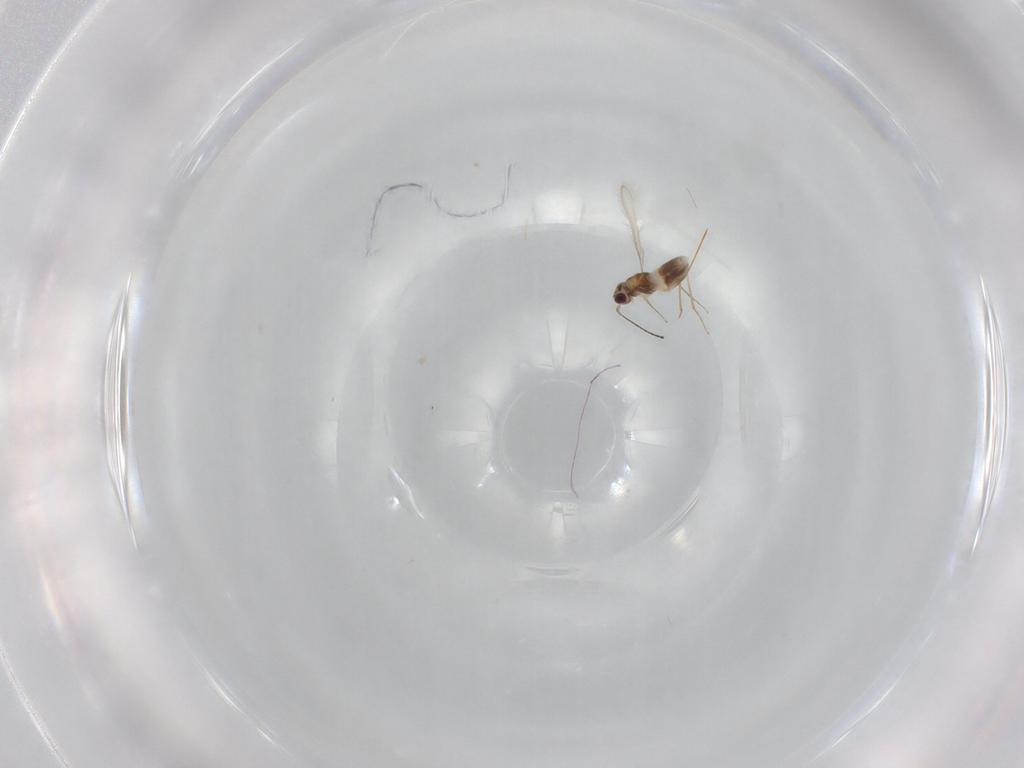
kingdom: Animalia
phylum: Arthropoda
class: Insecta
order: Hymenoptera
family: Mymaridae
